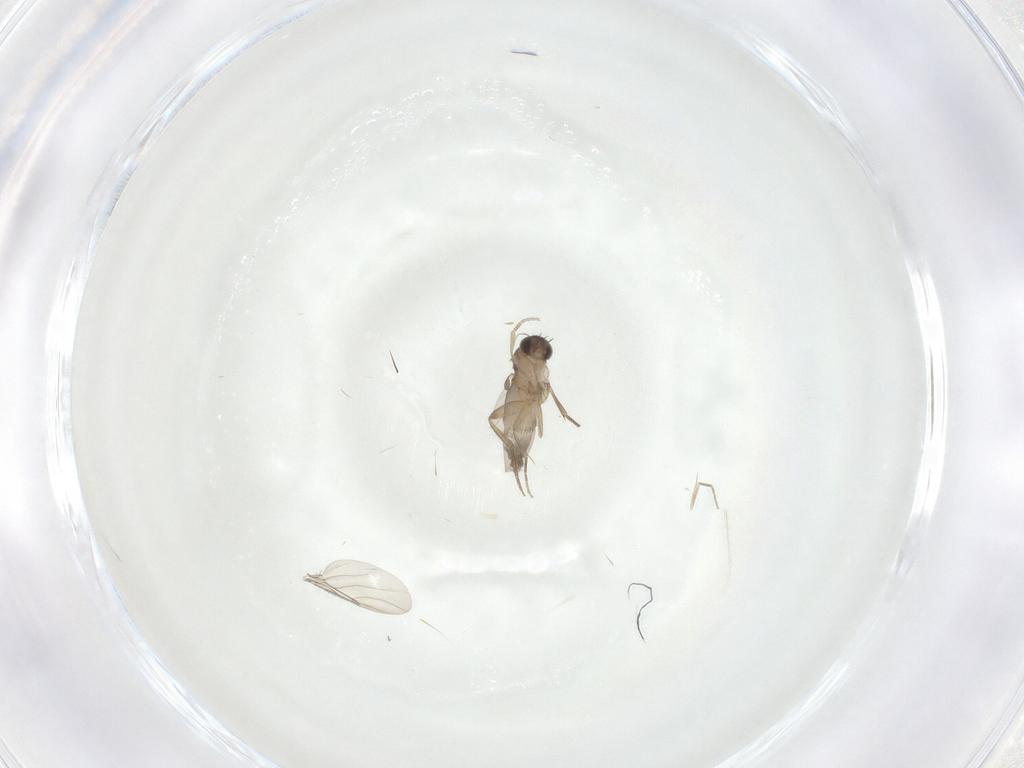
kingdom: Animalia
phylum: Arthropoda
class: Insecta
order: Diptera
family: Phoridae
